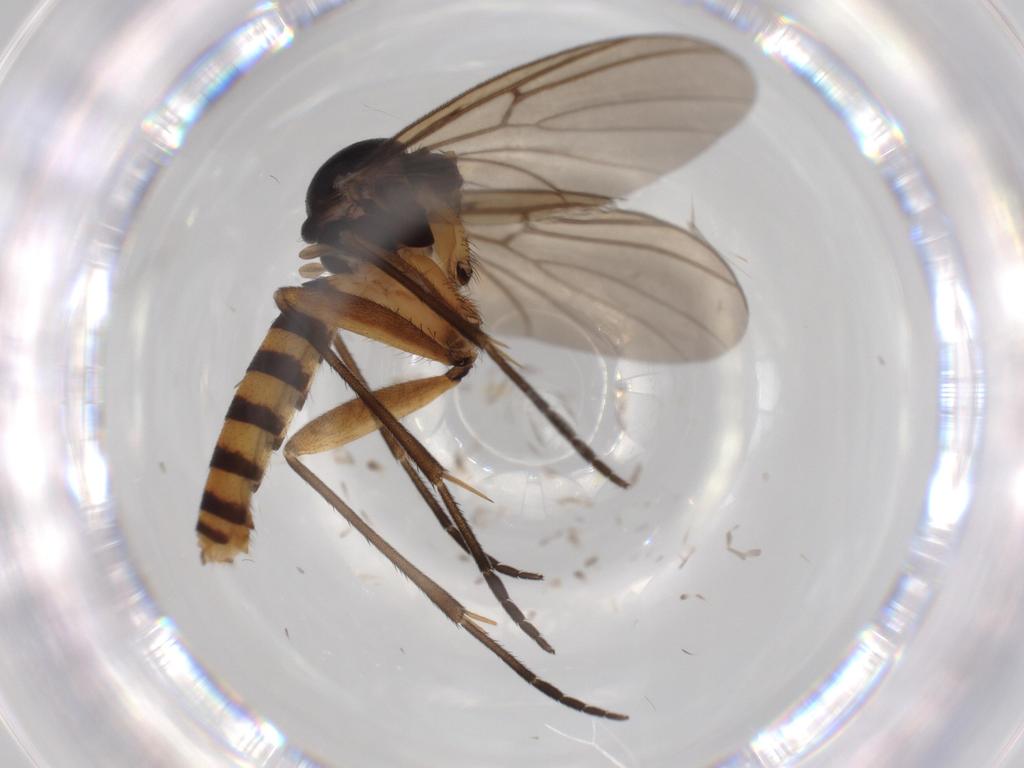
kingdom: Animalia
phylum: Arthropoda
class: Insecta
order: Diptera
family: Mycetophilidae
